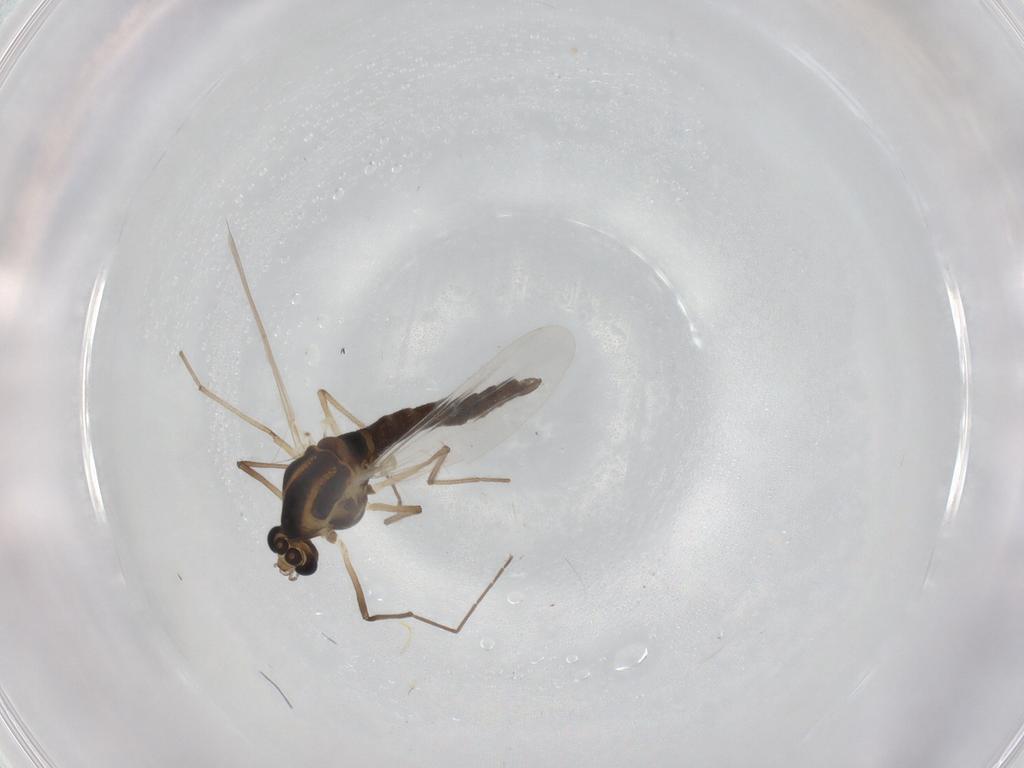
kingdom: Animalia
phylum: Arthropoda
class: Insecta
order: Diptera
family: Chironomidae
